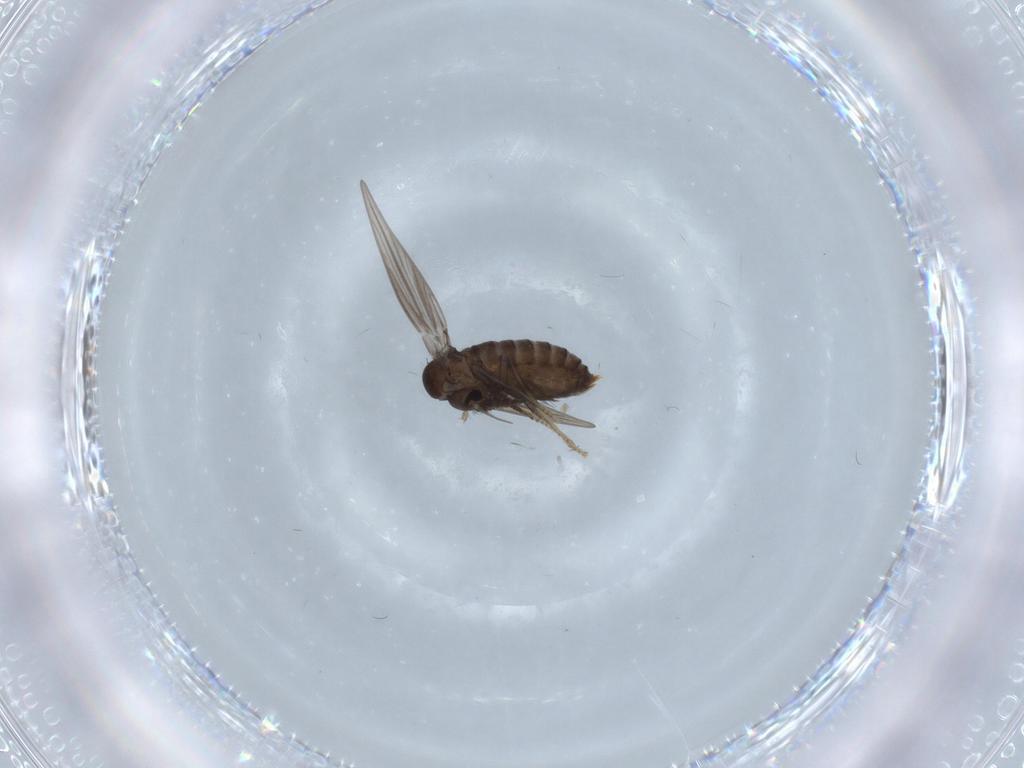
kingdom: Animalia
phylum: Arthropoda
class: Insecta
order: Diptera
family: Psychodidae
